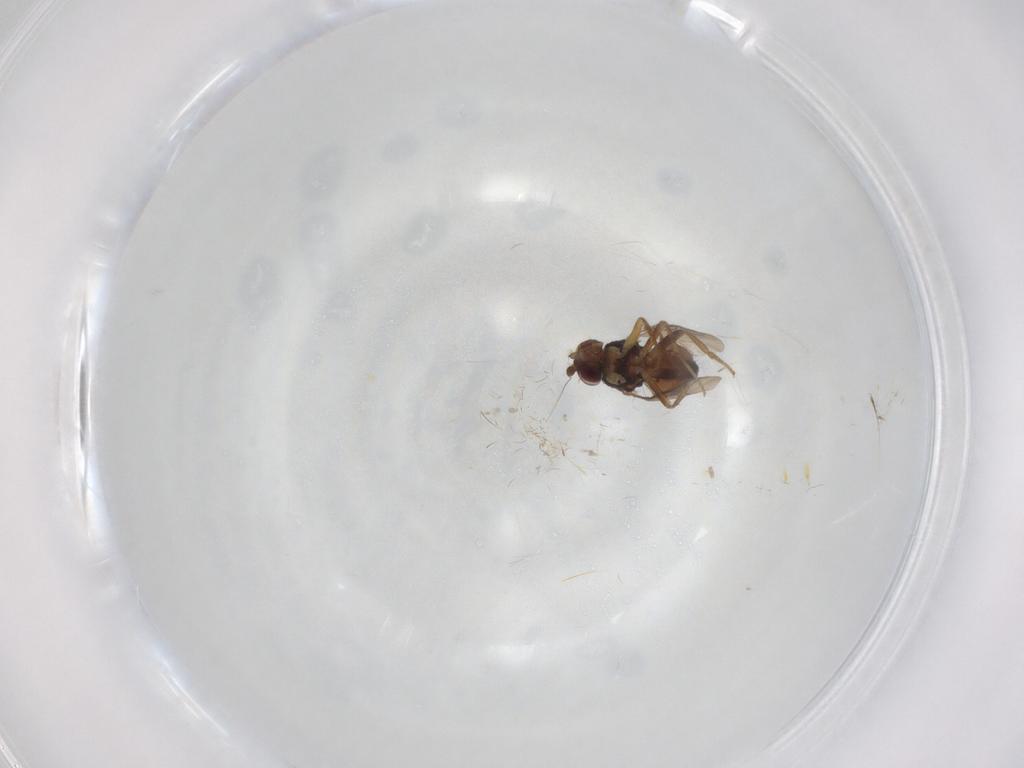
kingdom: Animalia
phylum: Arthropoda
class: Insecta
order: Diptera
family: Sphaeroceridae
